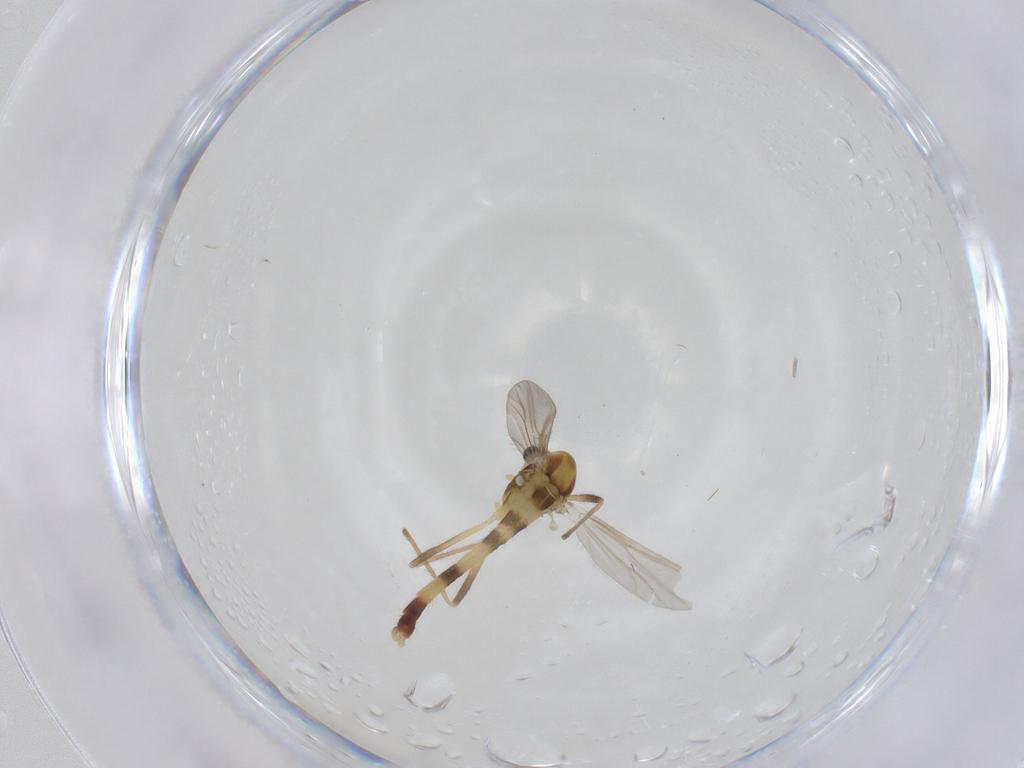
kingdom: Animalia
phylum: Arthropoda
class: Insecta
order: Diptera
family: Chironomidae
